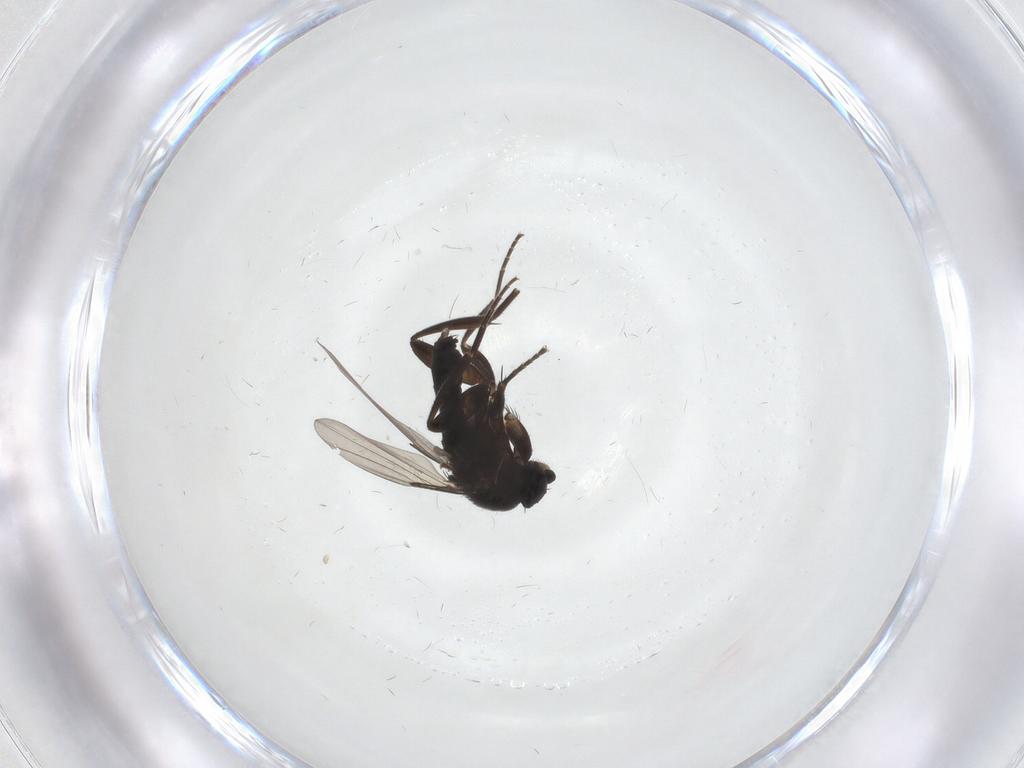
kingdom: Animalia
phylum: Arthropoda
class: Insecta
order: Diptera
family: Phoridae
